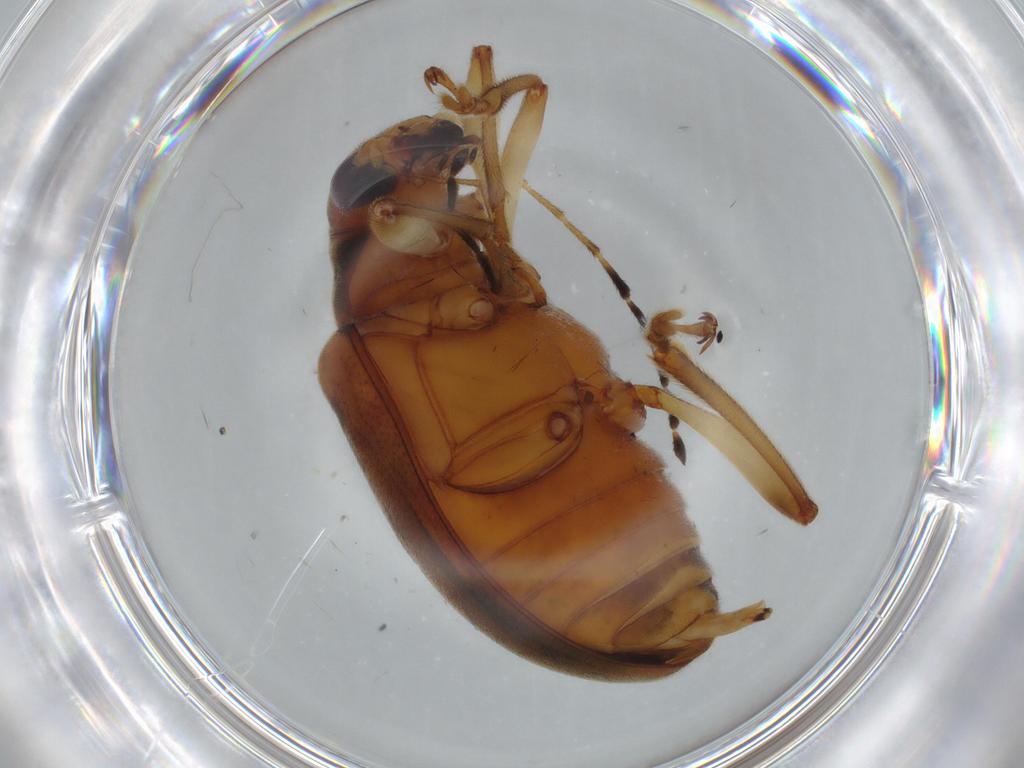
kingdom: Animalia
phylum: Arthropoda
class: Insecta
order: Coleoptera
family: Chrysomelidae
